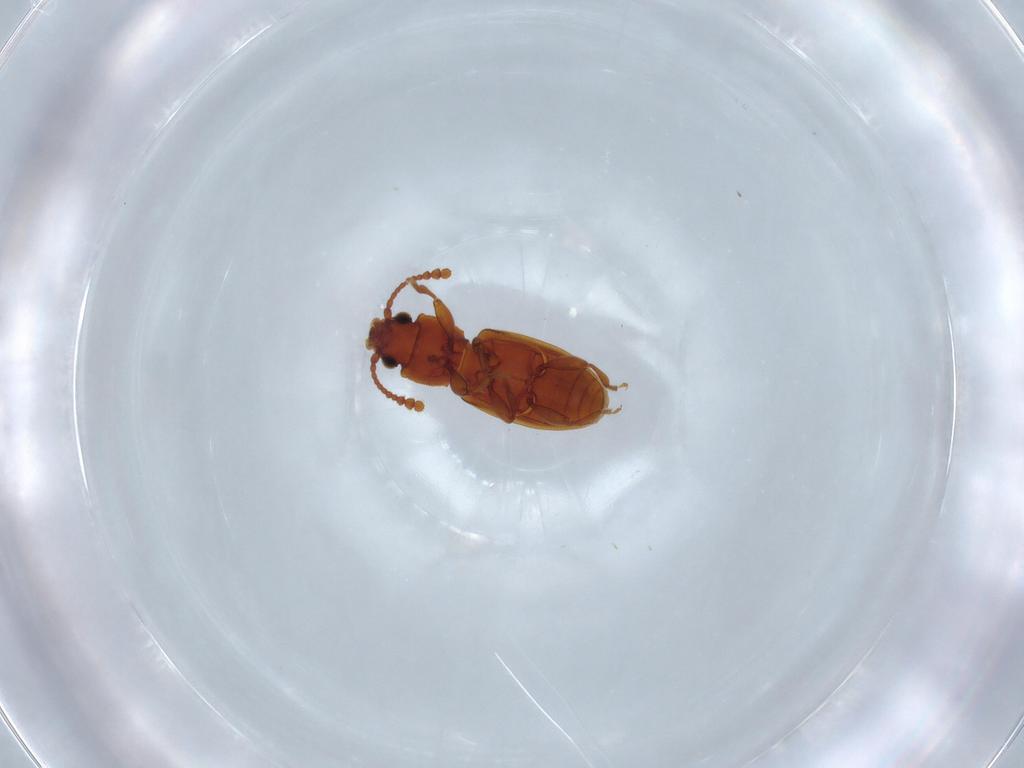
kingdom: Animalia
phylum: Arthropoda
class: Insecta
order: Coleoptera
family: Silvanidae
